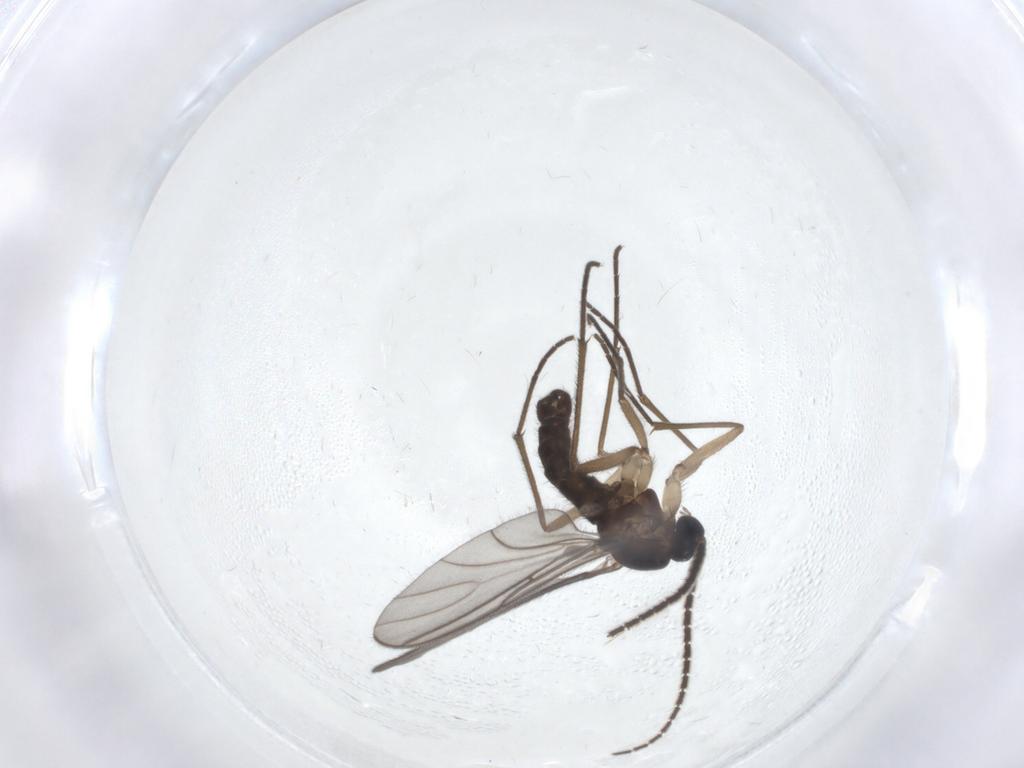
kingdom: Animalia
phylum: Arthropoda
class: Insecta
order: Diptera
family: Sciaridae
